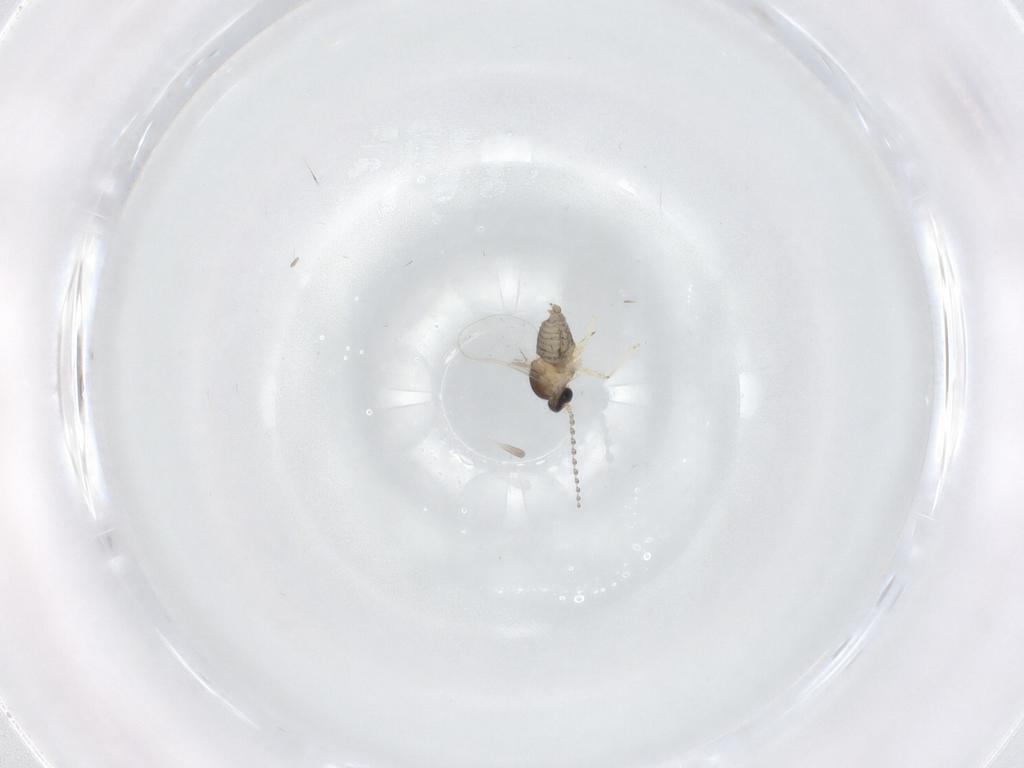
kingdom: Animalia
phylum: Arthropoda
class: Insecta
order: Diptera
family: Cecidomyiidae
